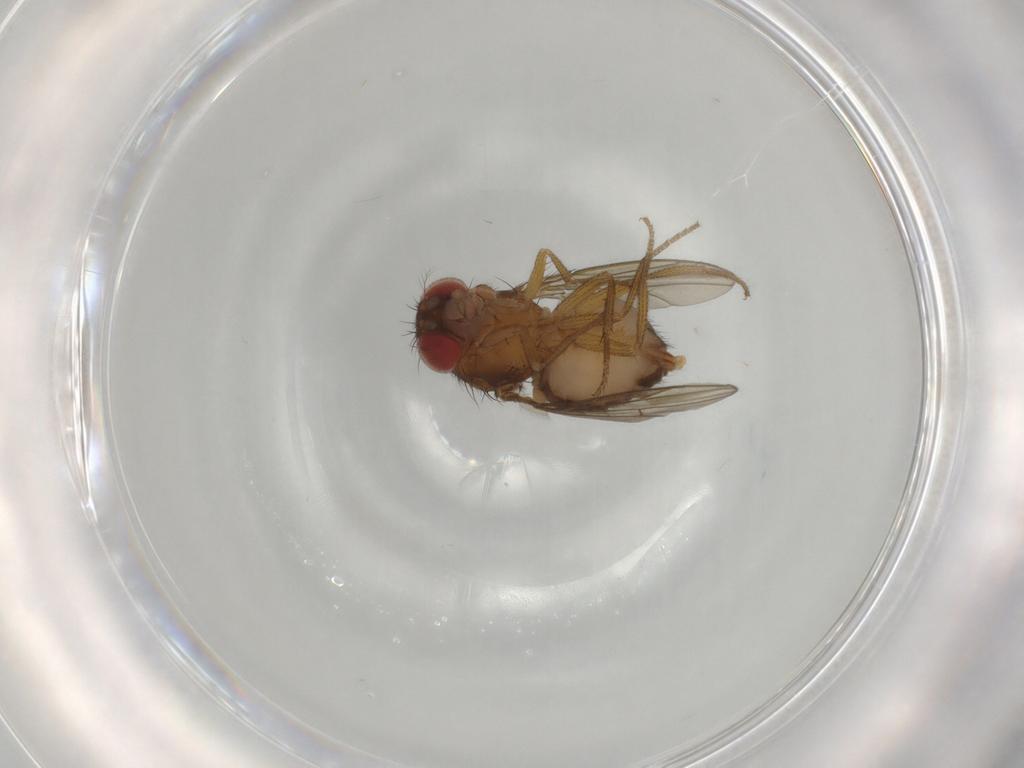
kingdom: Animalia
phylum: Arthropoda
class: Insecta
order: Diptera
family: Drosophilidae
